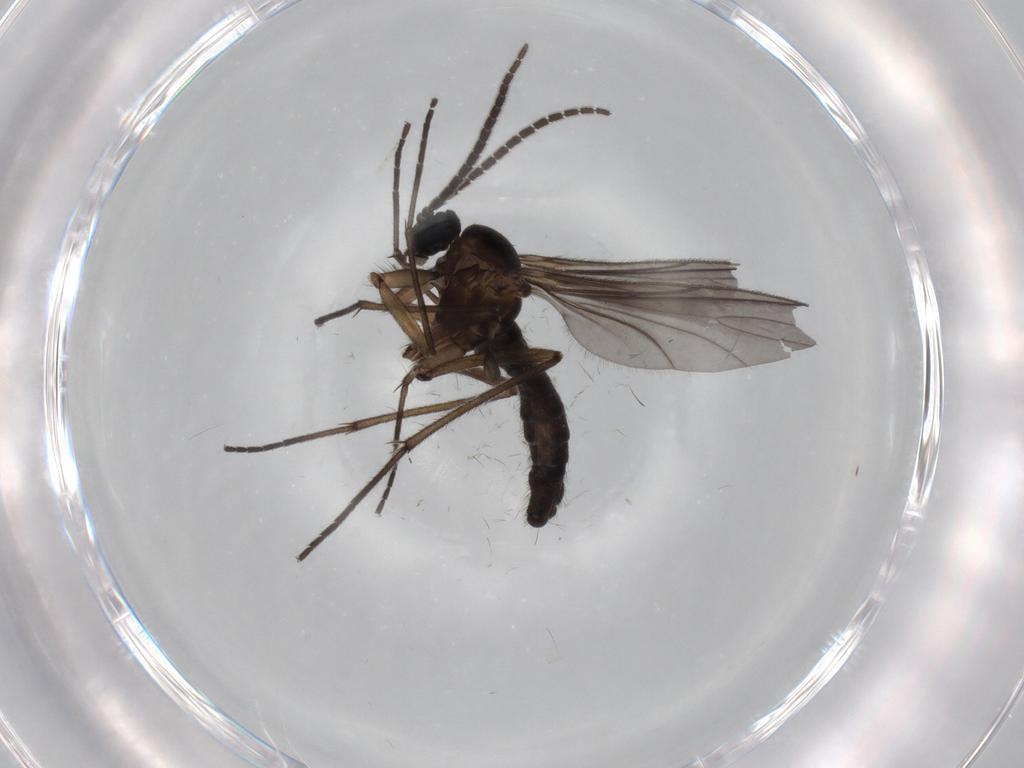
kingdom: Animalia
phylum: Arthropoda
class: Insecta
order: Diptera
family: Sciaridae
